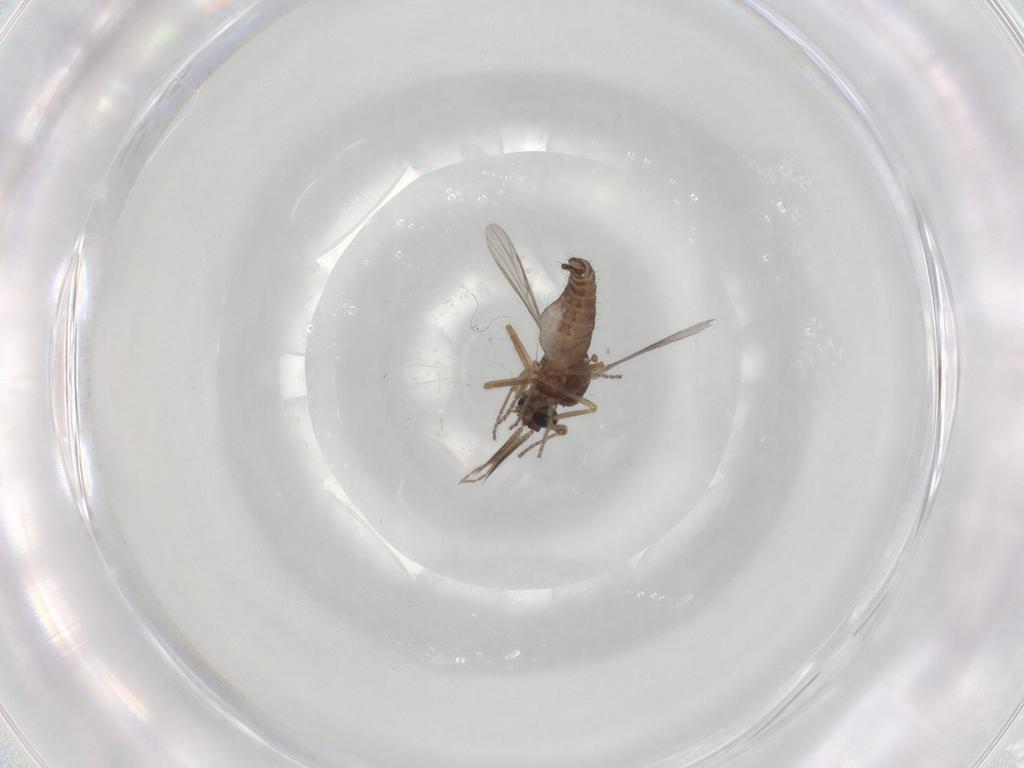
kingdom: Animalia
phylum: Arthropoda
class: Insecta
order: Diptera
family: Ceratopogonidae
